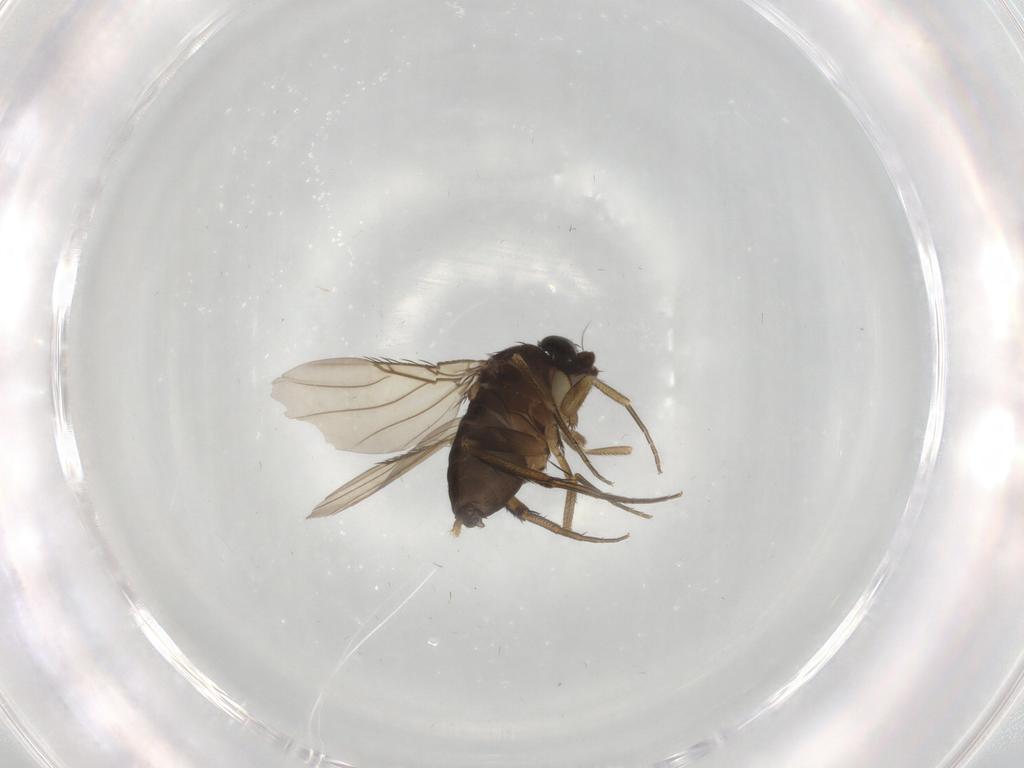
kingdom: Animalia
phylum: Arthropoda
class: Insecta
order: Diptera
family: Phoridae
